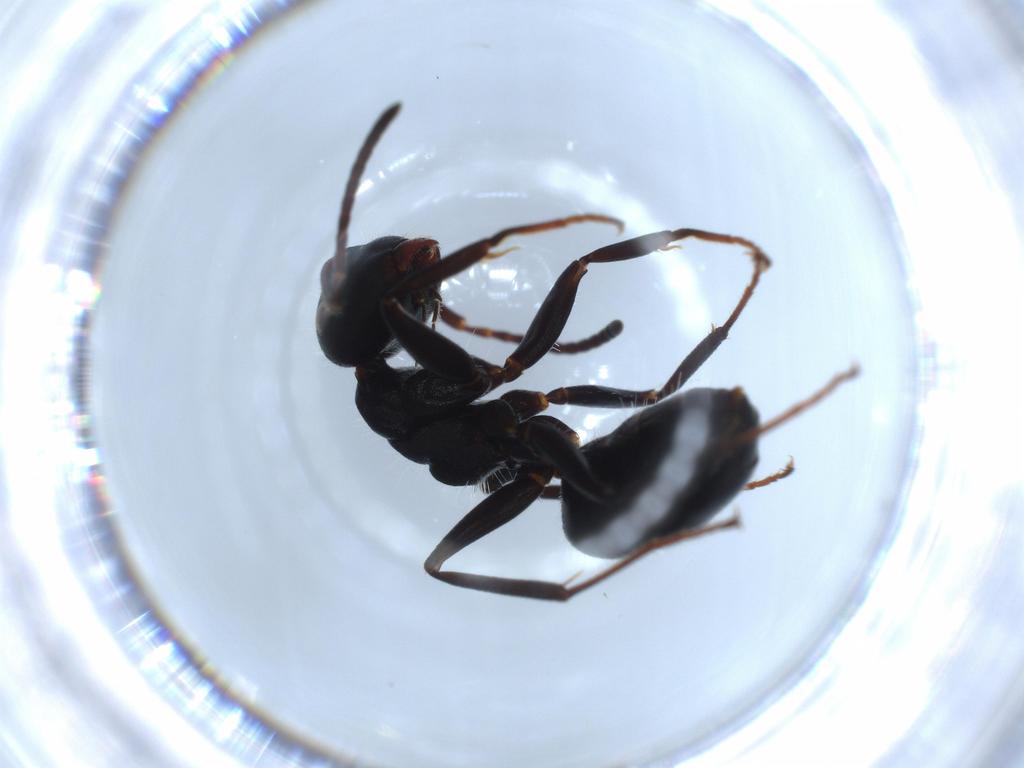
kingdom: Animalia
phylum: Arthropoda
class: Insecta
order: Hymenoptera
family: Formicidae
